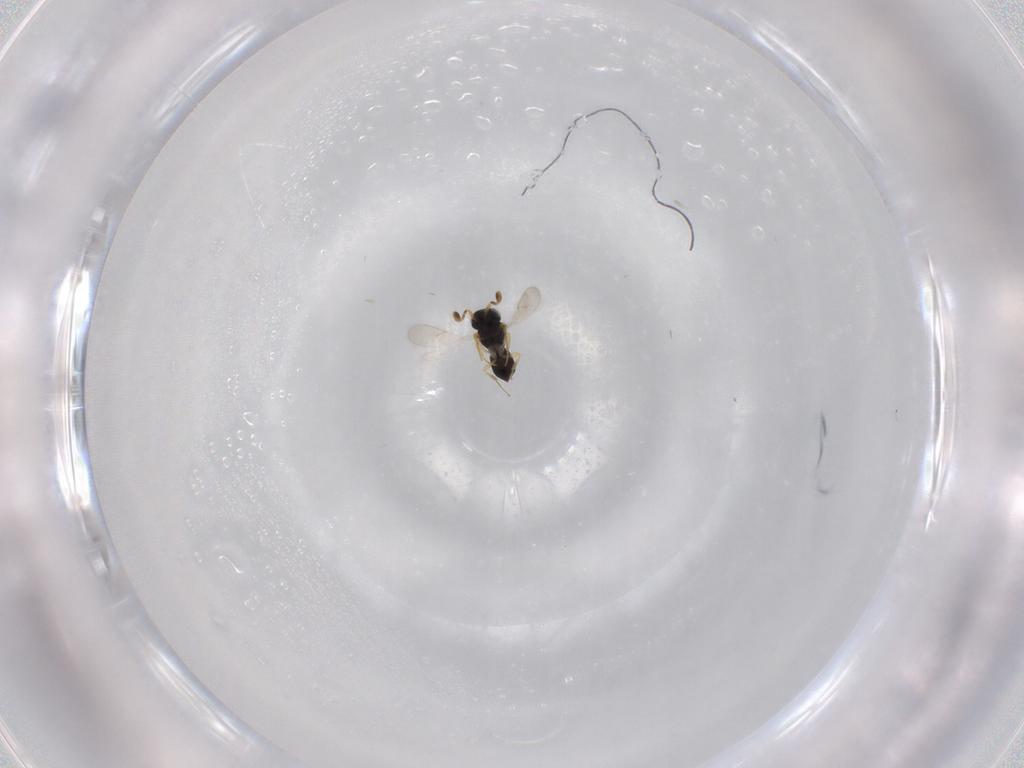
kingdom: Animalia
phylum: Arthropoda
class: Insecta
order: Hymenoptera
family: Scelionidae
